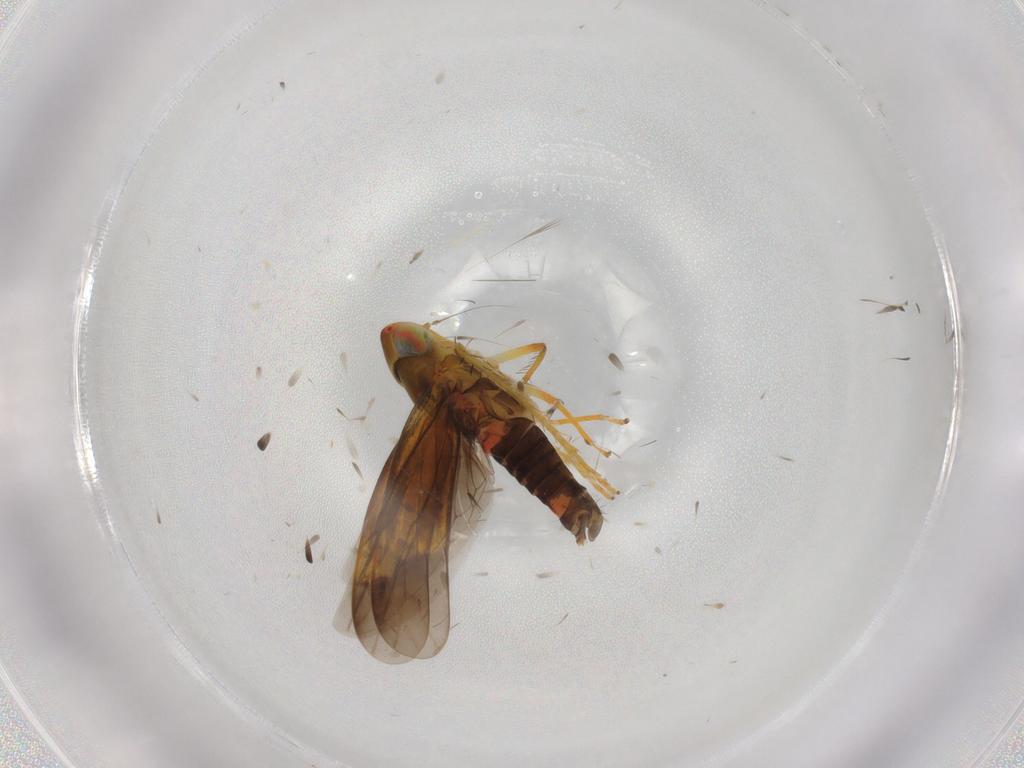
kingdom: Animalia
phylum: Arthropoda
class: Insecta
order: Hemiptera
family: Cicadellidae
